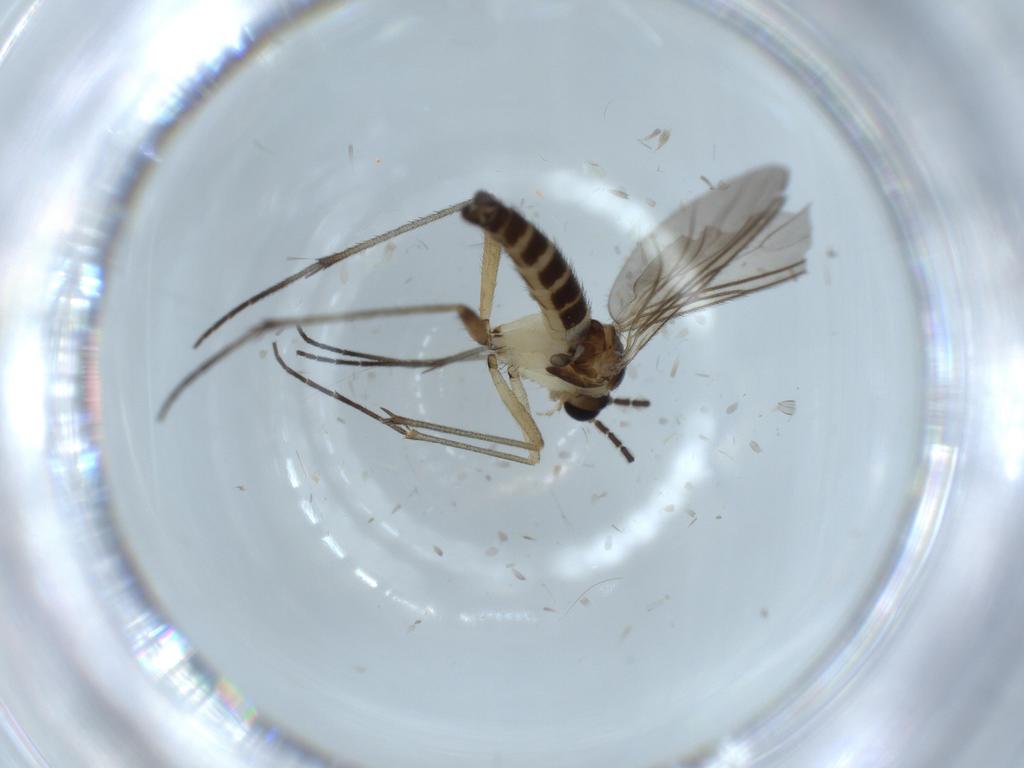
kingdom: Animalia
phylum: Arthropoda
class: Insecta
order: Diptera
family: Sciaridae
